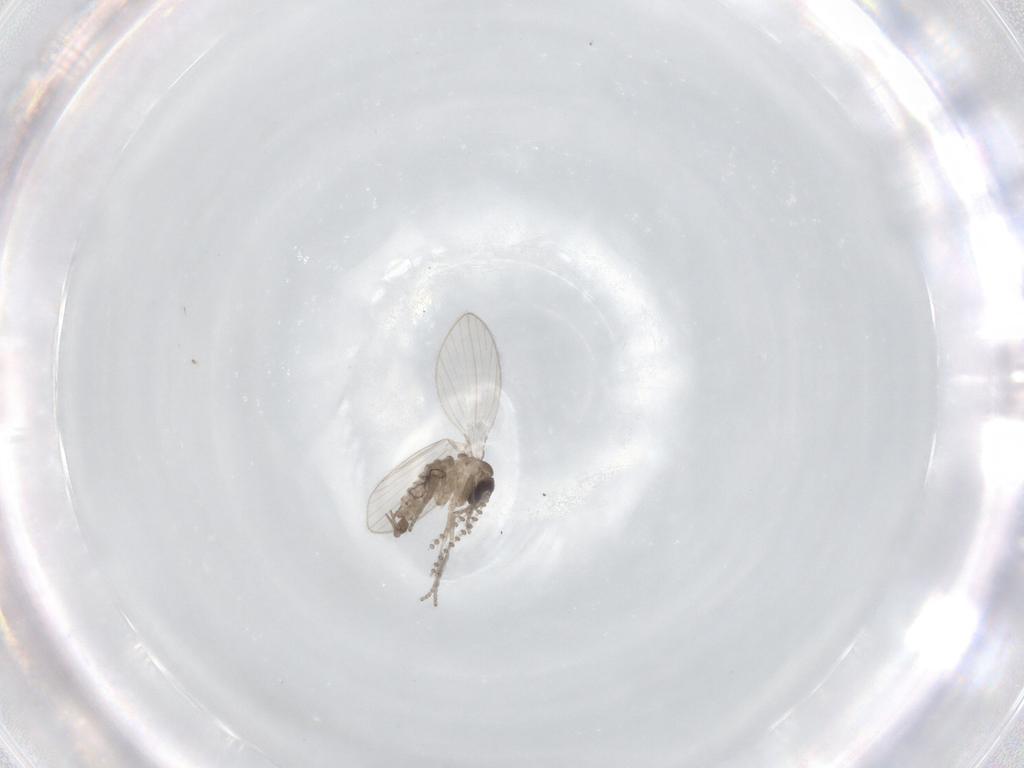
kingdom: Animalia
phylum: Arthropoda
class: Insecta
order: Diptera
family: Psychodidae
